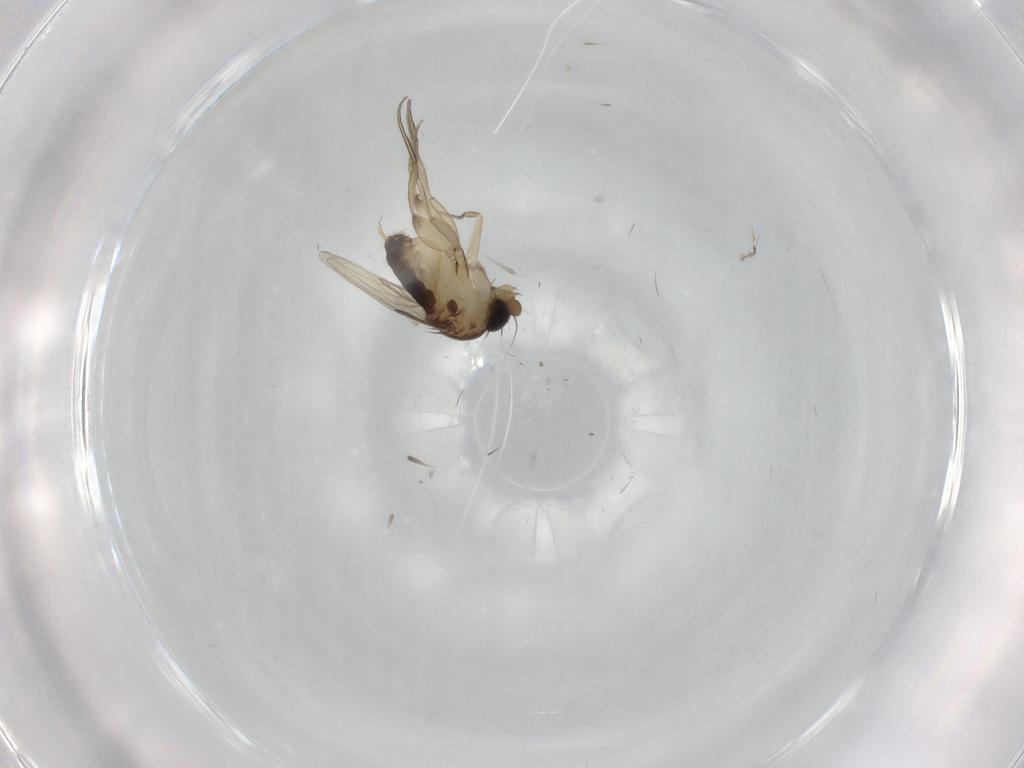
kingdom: Animalia
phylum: Arthropoda
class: Insecta
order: Diptera
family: Phoridae
